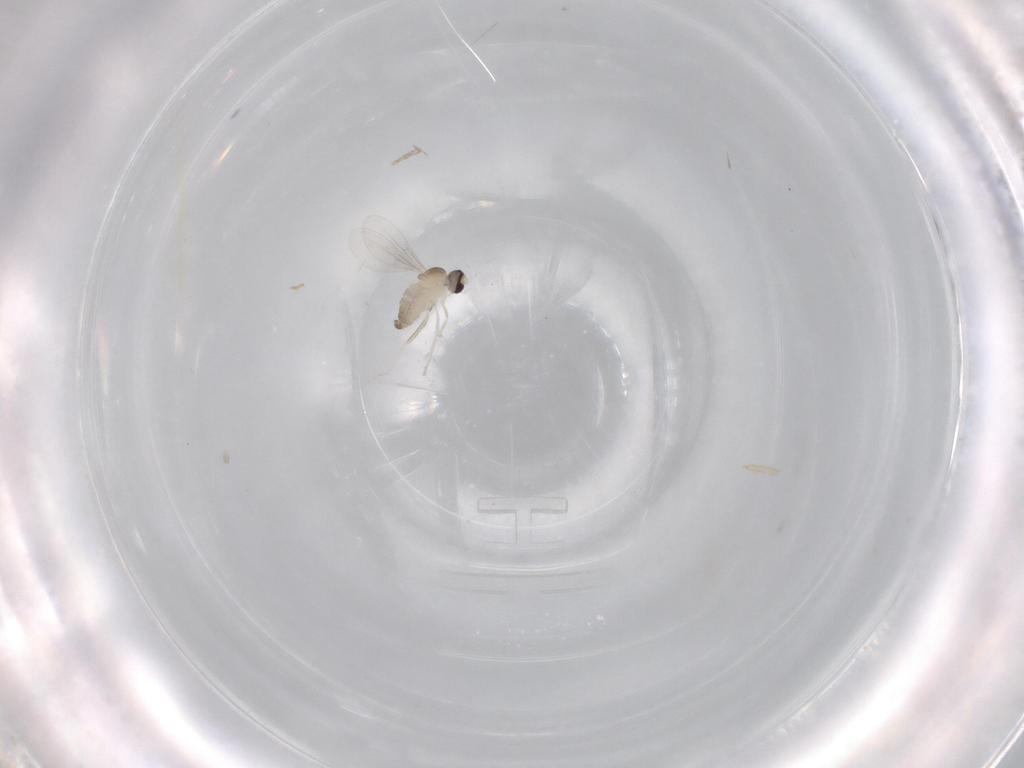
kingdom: Animalia
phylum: Arthropoda
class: Insecta
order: Diptera
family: Cecidomyiidae
